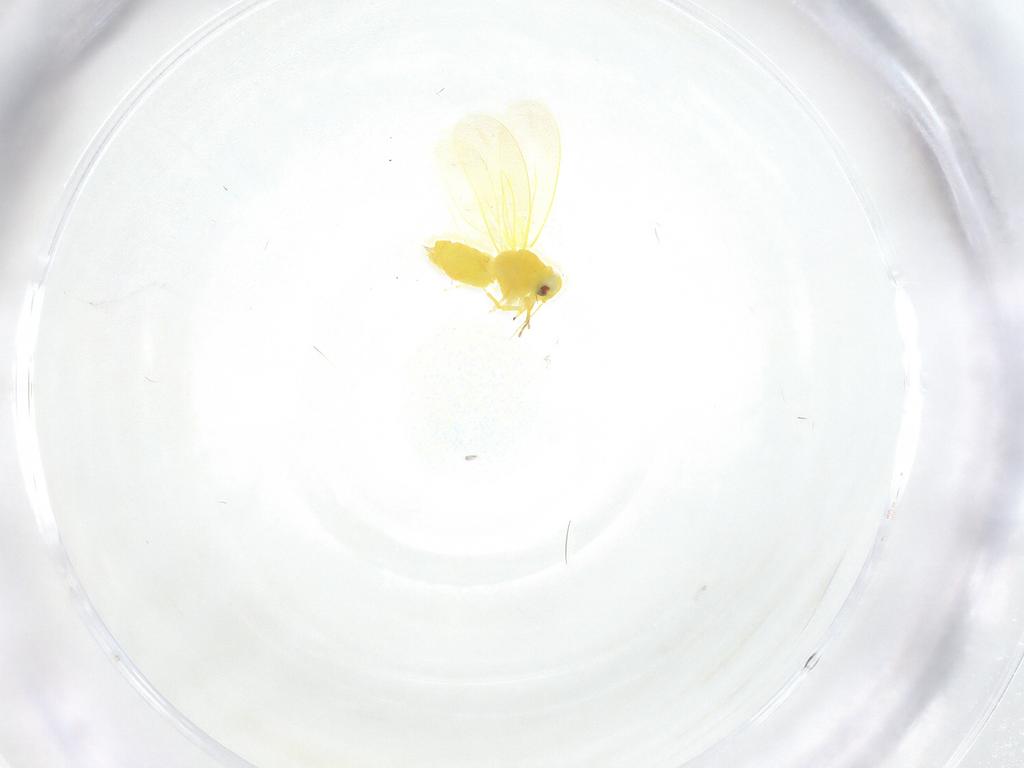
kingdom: Animalia
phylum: Arthropoda
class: Insecta
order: Hemiptera
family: Aleyrodidae
